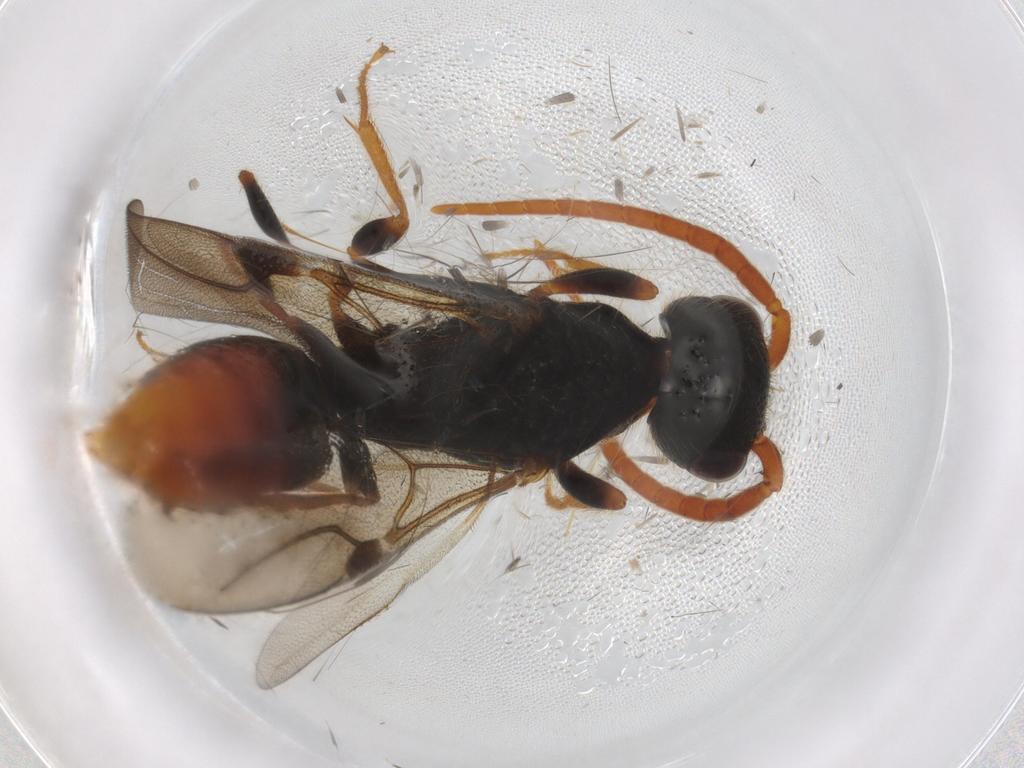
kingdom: Animalia
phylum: Arthropoda
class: Insecta
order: Hymenoptera
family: Bethylidae
